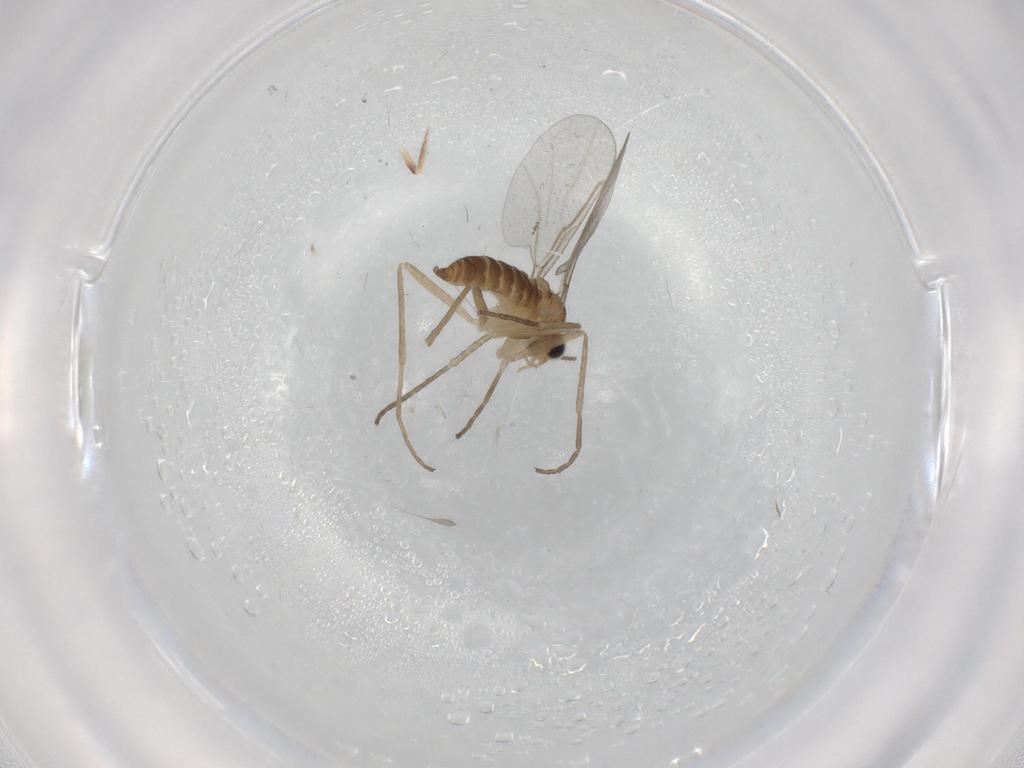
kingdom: Animalia
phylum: Arthropoda
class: Insecta
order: Diptera
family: Cecidomyiidae
